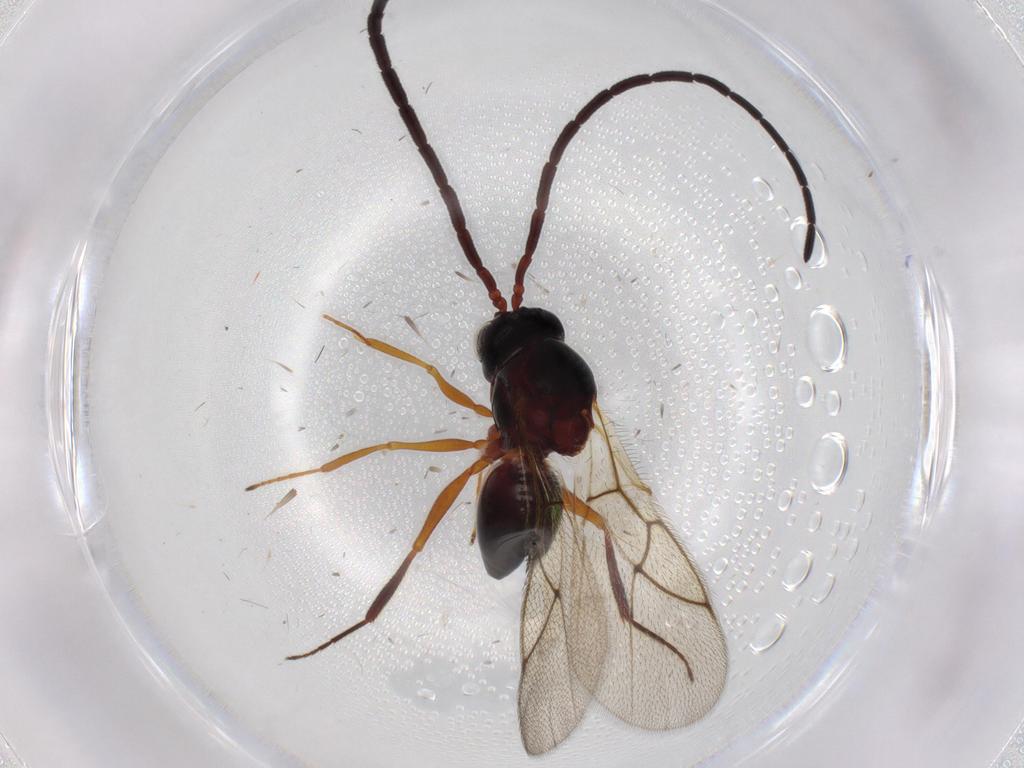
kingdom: Animalia
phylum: Arthropoda
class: Insecta
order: Hymenoptera
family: Figitidae
